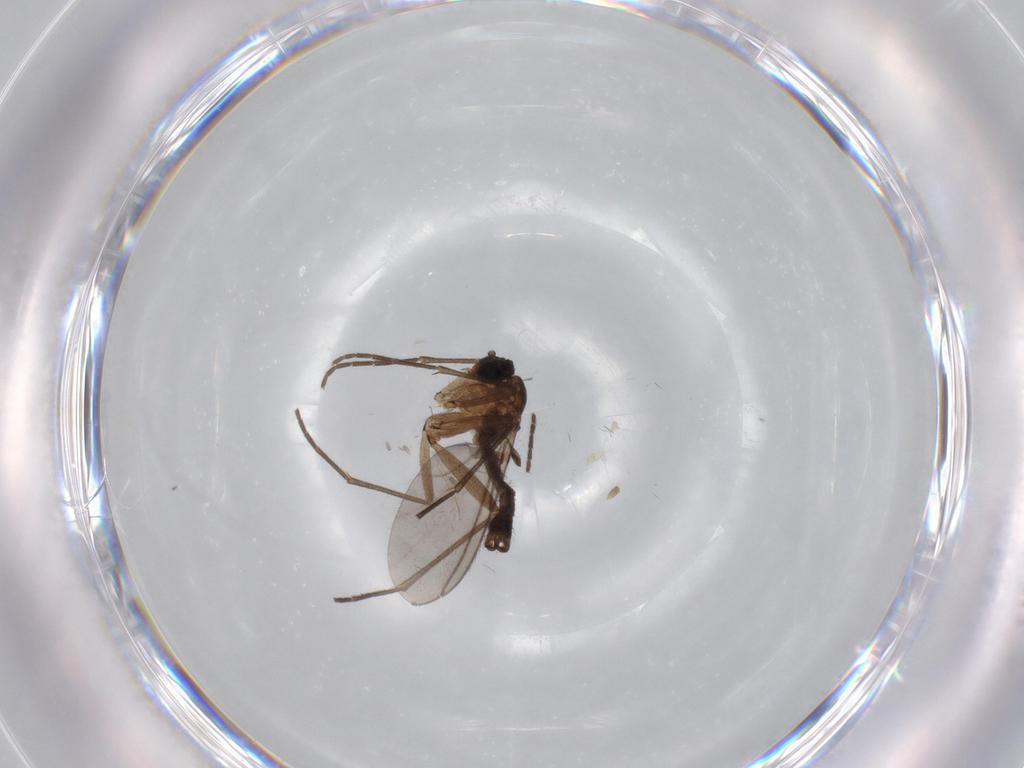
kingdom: Animalia
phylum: Arthropoda
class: Insecta
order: Diptera
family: Sciaridae
